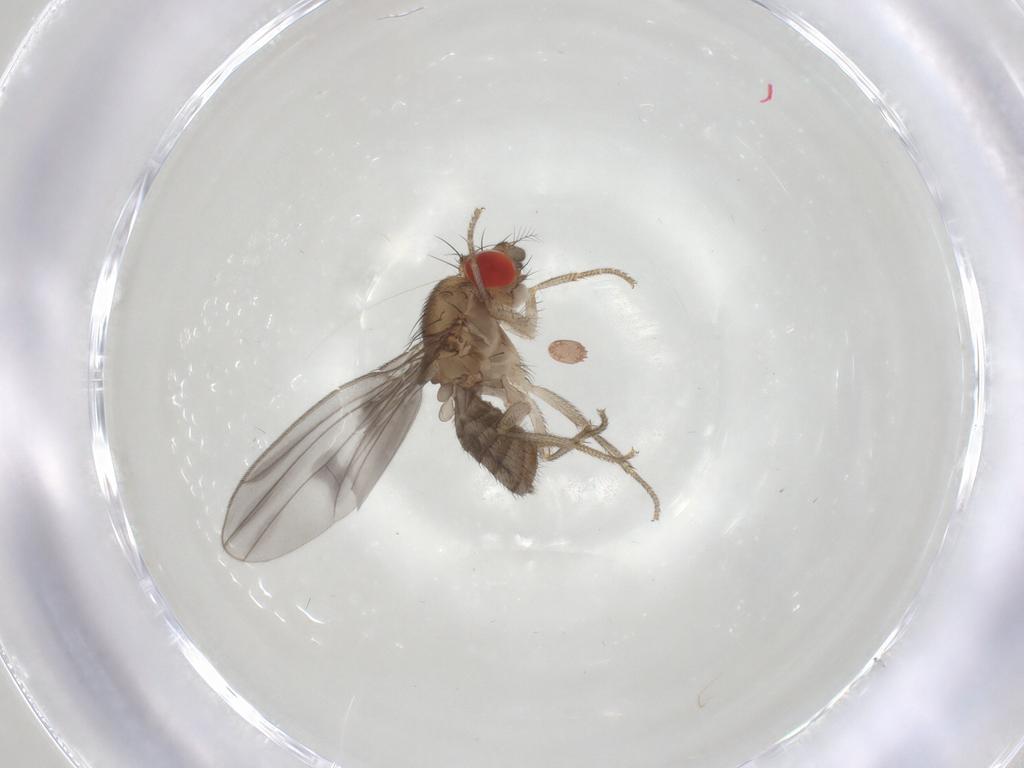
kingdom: Animalia
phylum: Arthropoda
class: Insecta
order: Diptera
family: Drosophilidae
